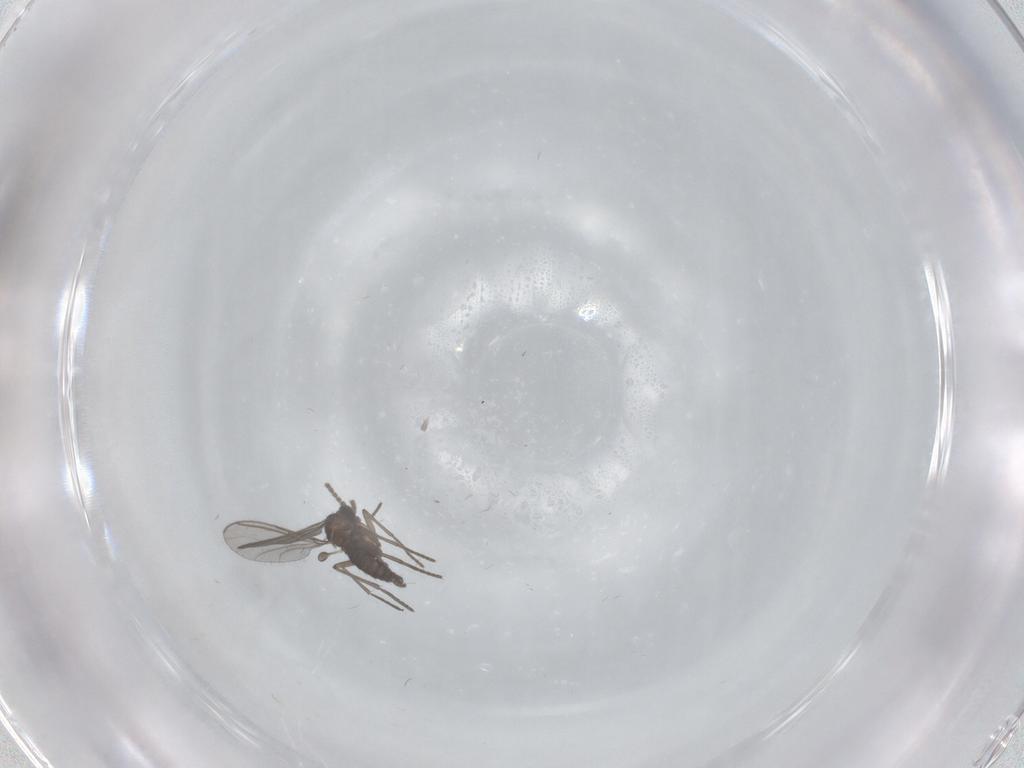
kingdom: Animalia
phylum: Arthropoda
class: Insecta
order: Diptera
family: Sciaridae
